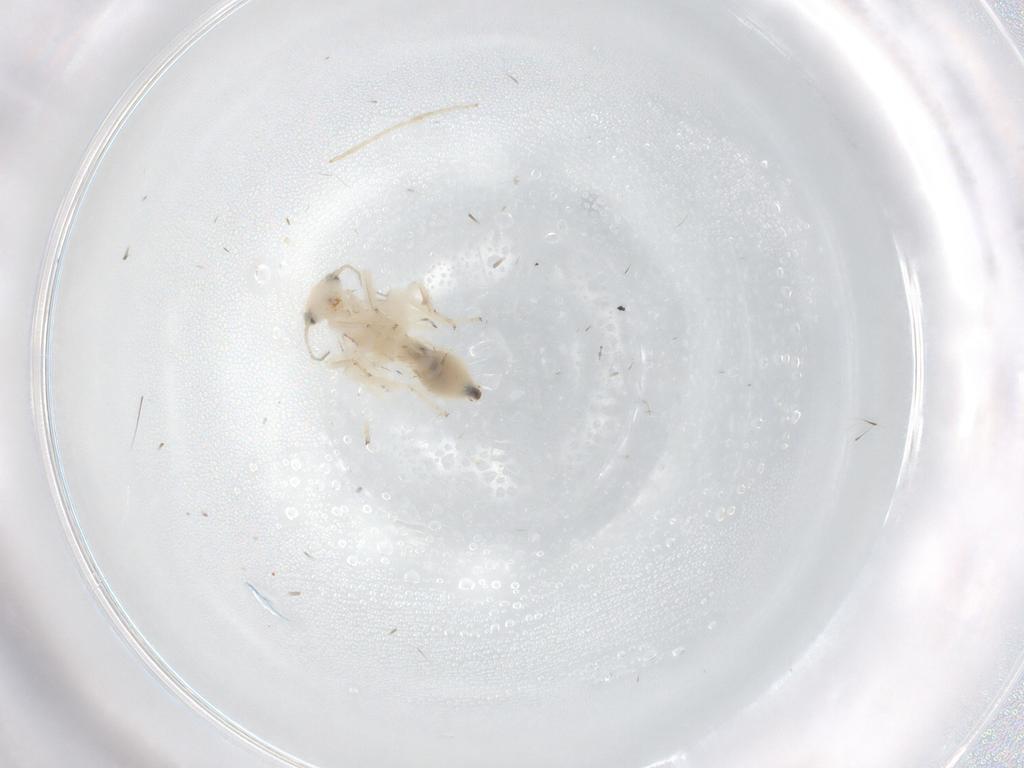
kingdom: Animalia
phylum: Arthropoda
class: Insecta
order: Psocodea
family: Lepidopsocidae
